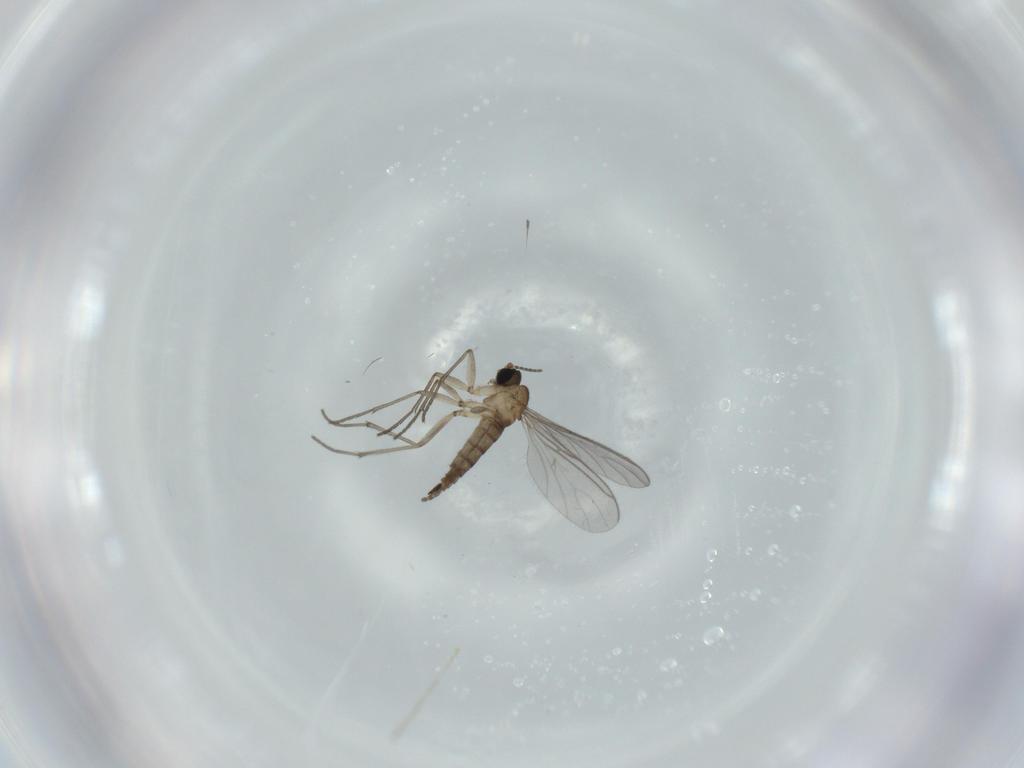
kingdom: Animalia
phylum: Arthropoda
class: Insecta
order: Diptera
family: Sciaridae
